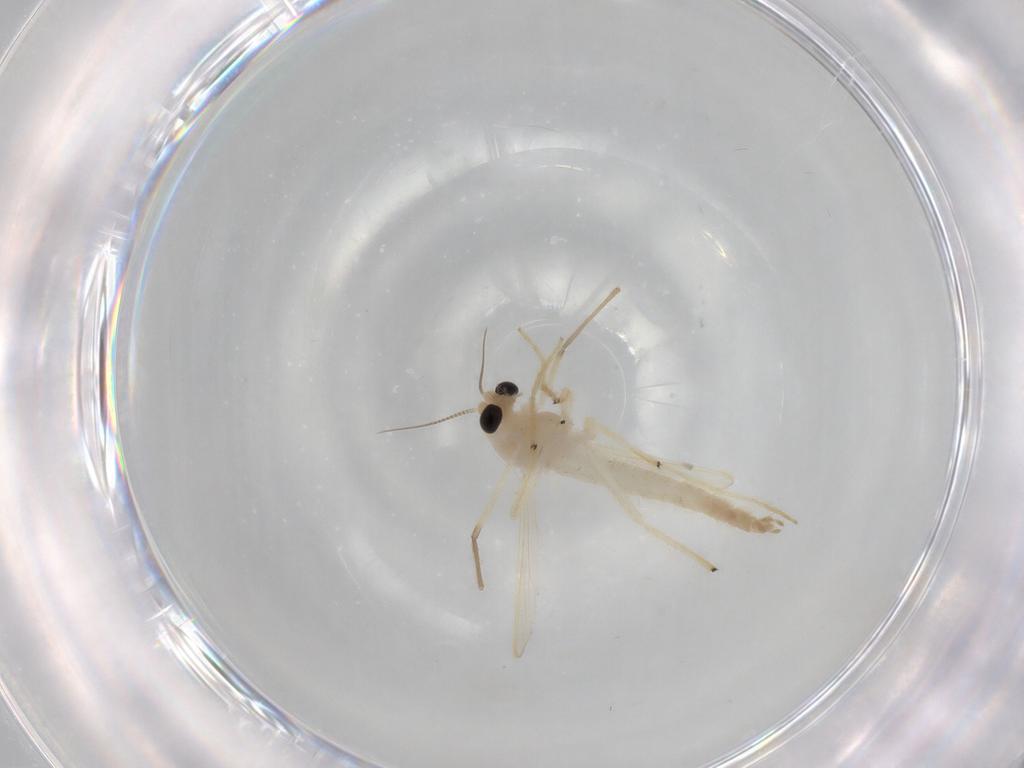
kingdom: Animalia
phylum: Arthropoda
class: Insecta
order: Diptera
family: Chironomidae
